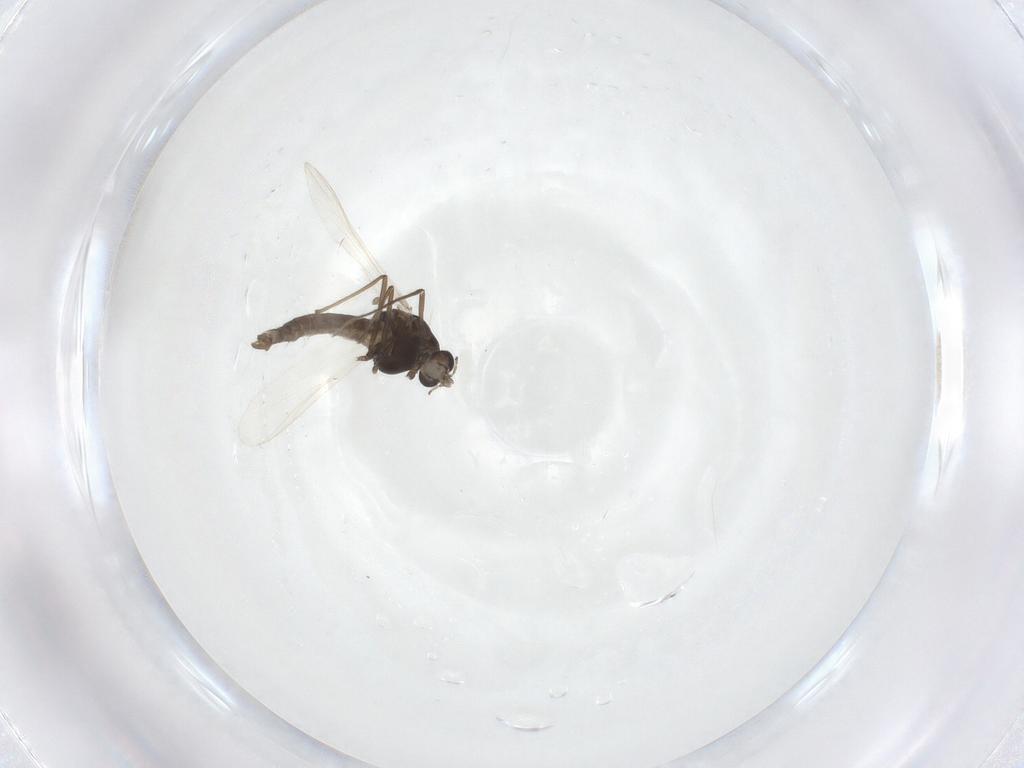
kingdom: Animalia
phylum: Arthropoda
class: Insecta
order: Diptera
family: Chironomidae
